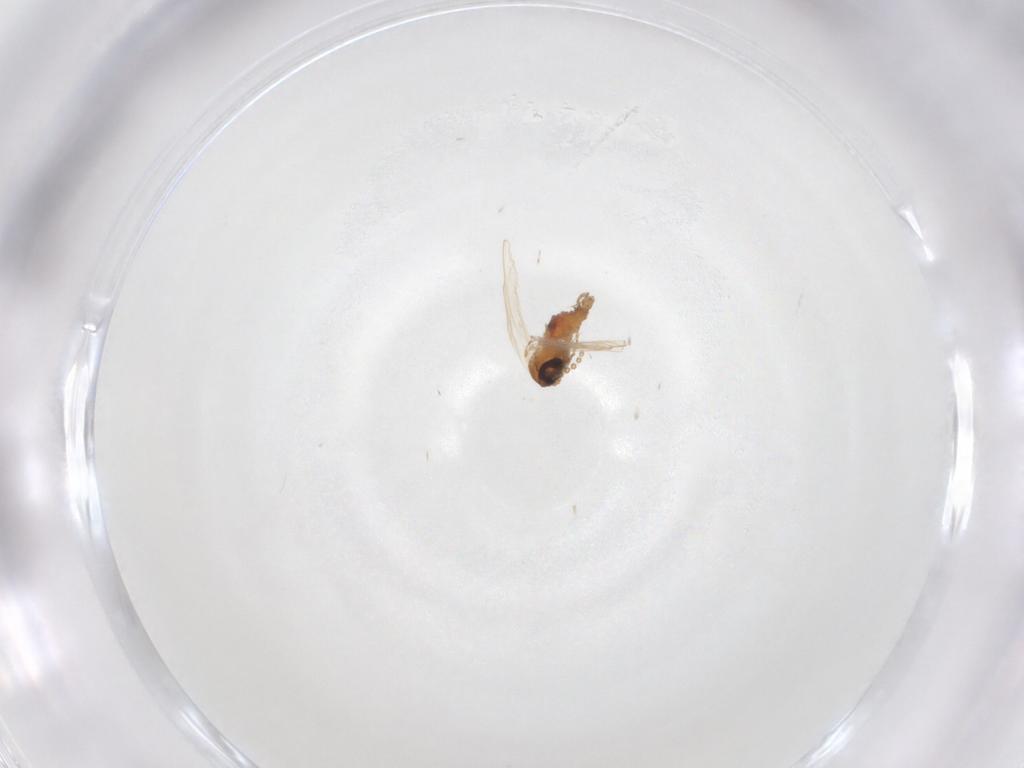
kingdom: Animalia
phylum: Arthropoda
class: Insecta
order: Diptera
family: Psychodidae
